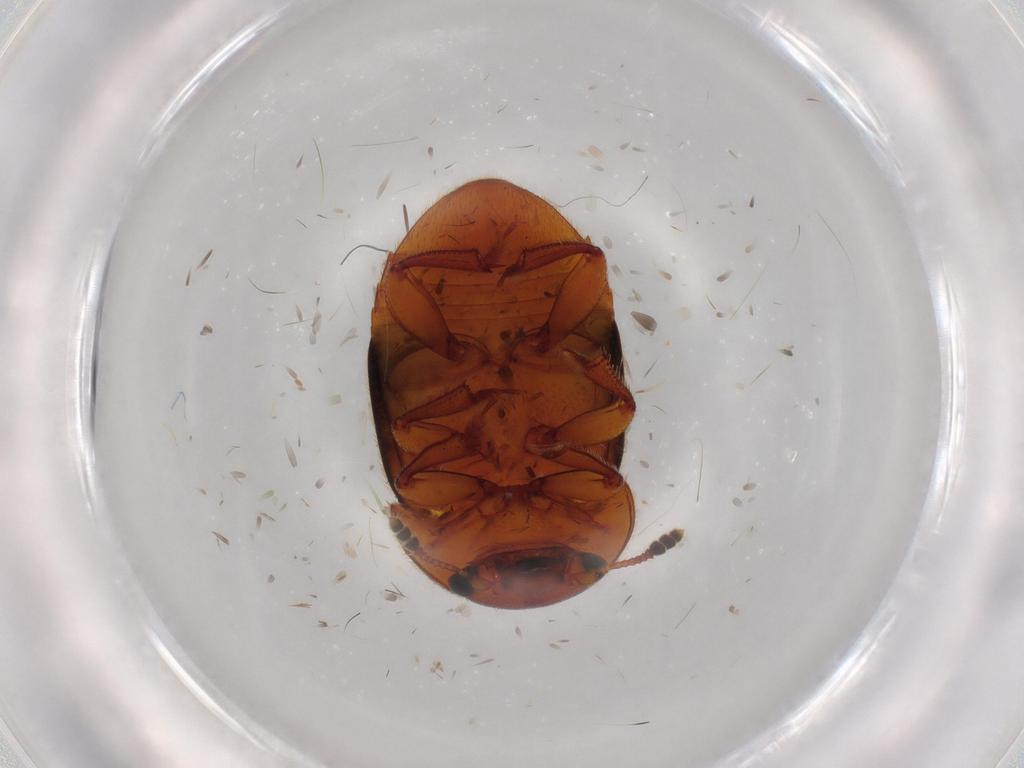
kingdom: Animalia
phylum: Arthropoda
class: Insecta
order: Coleoptera
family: Nitidulidae
